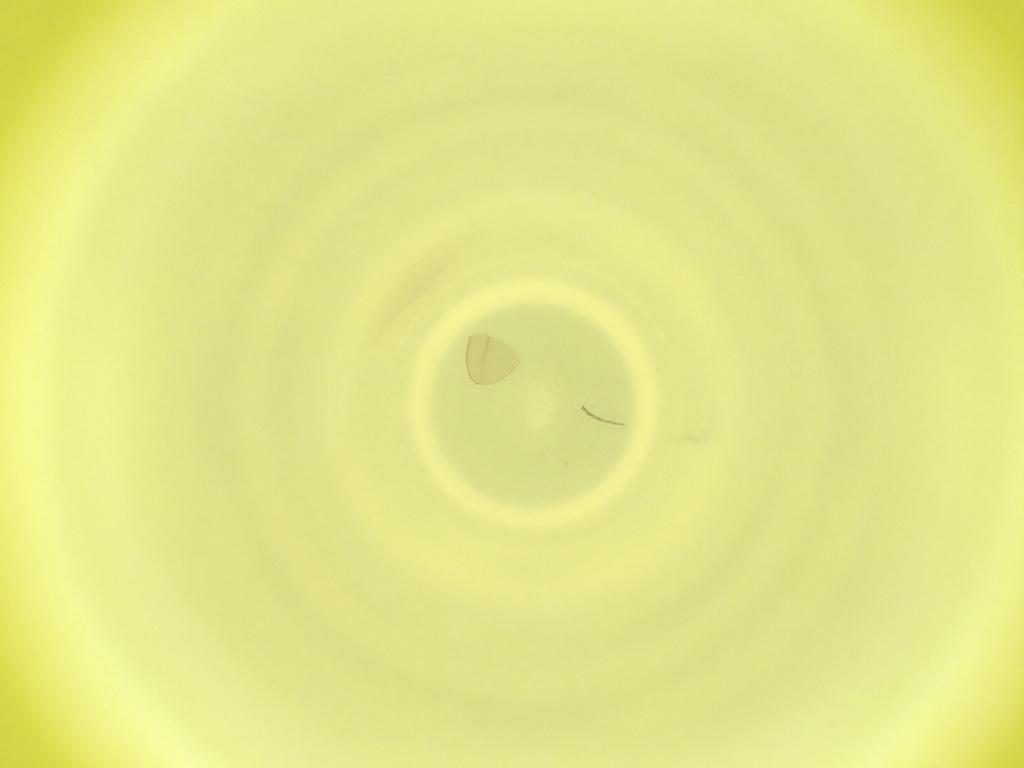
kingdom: Animalia
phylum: Arthropoda
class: Insecta
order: Diptera
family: Cecidomyiidae
